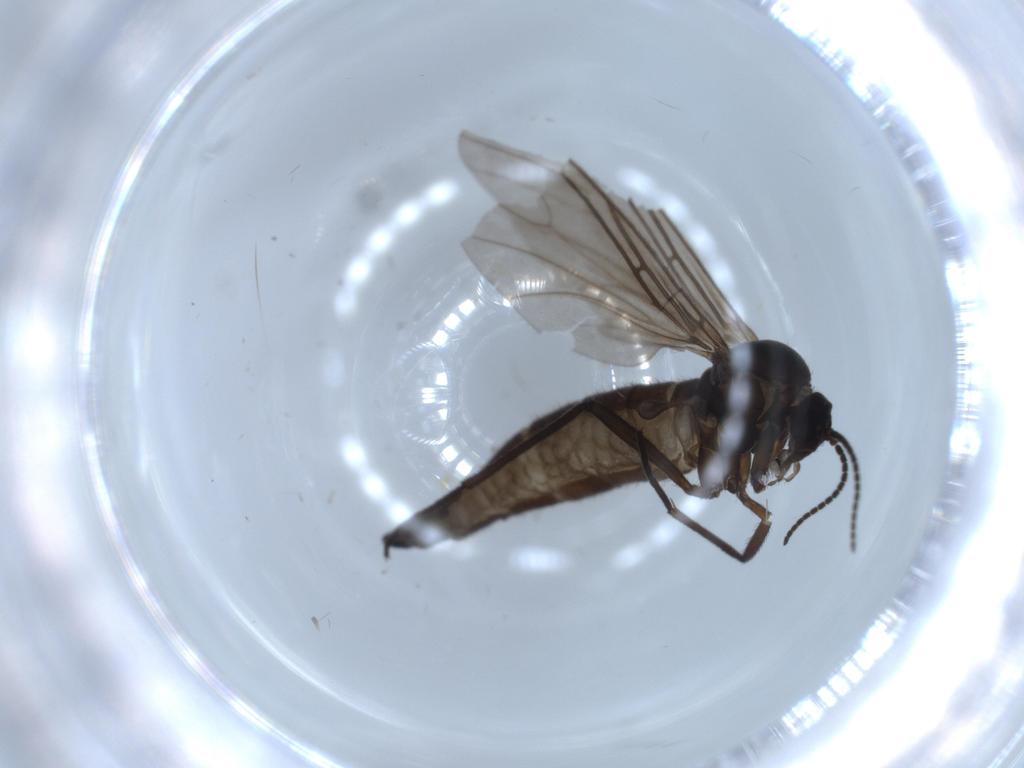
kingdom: Animalia
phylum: Arthropoda
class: Insecta
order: Diptera
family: Sciaridae
